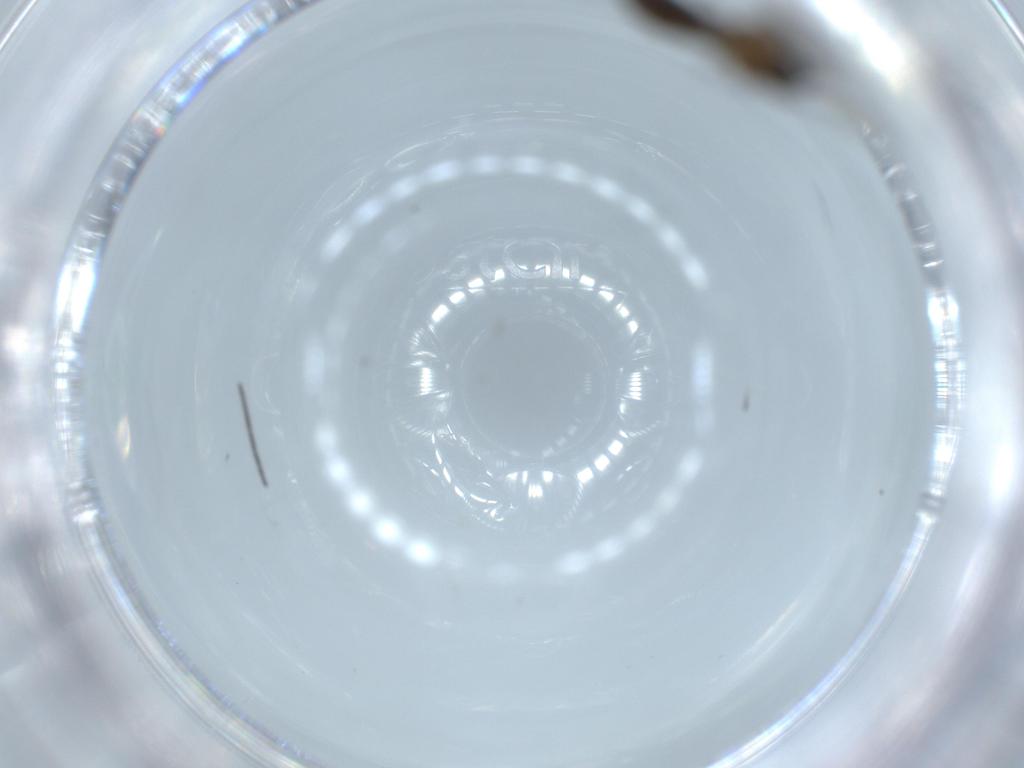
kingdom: Animalia
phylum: Arthropoda
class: Insecta
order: Diptera
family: Sciaridae
